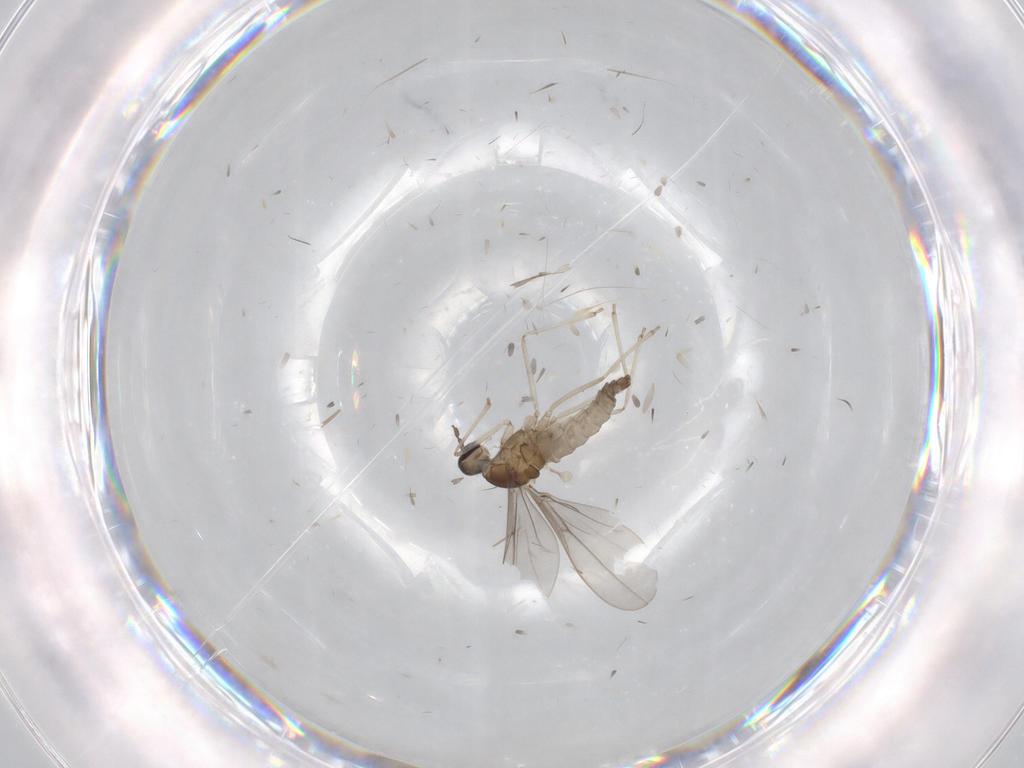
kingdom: Animalia
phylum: Arthropoda
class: Insecta
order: Diptera
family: Cecidomyiidae
